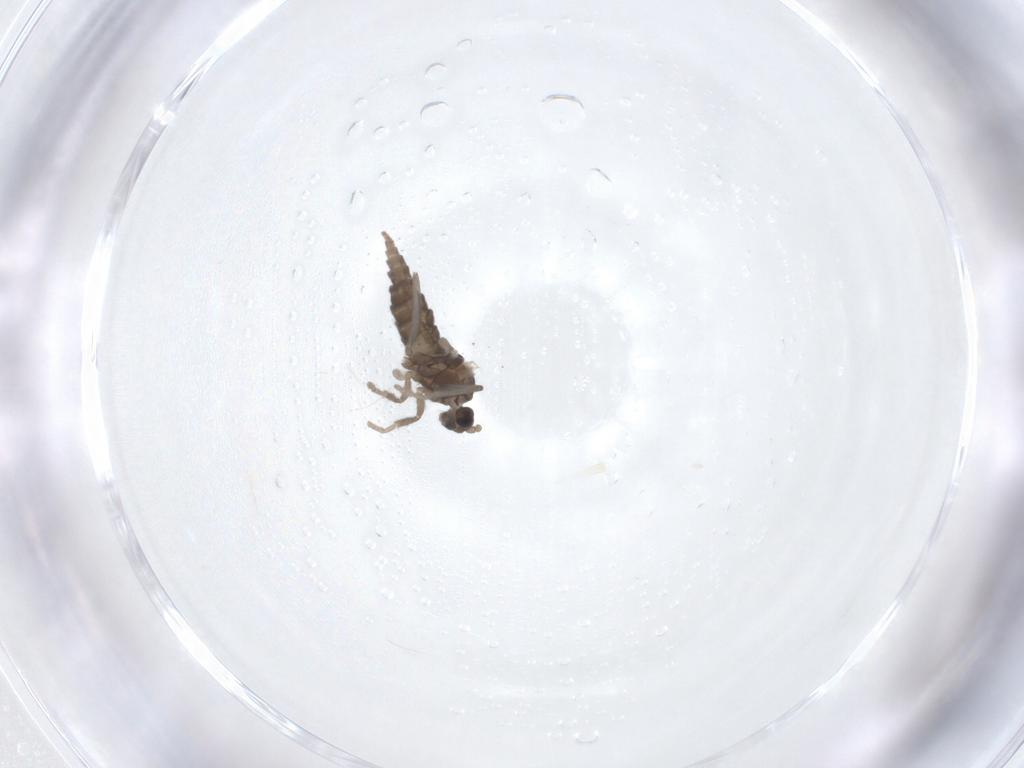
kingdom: Animalia
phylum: Arthropoda
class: Insecta
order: Diptera
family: Cecidomyiidae
